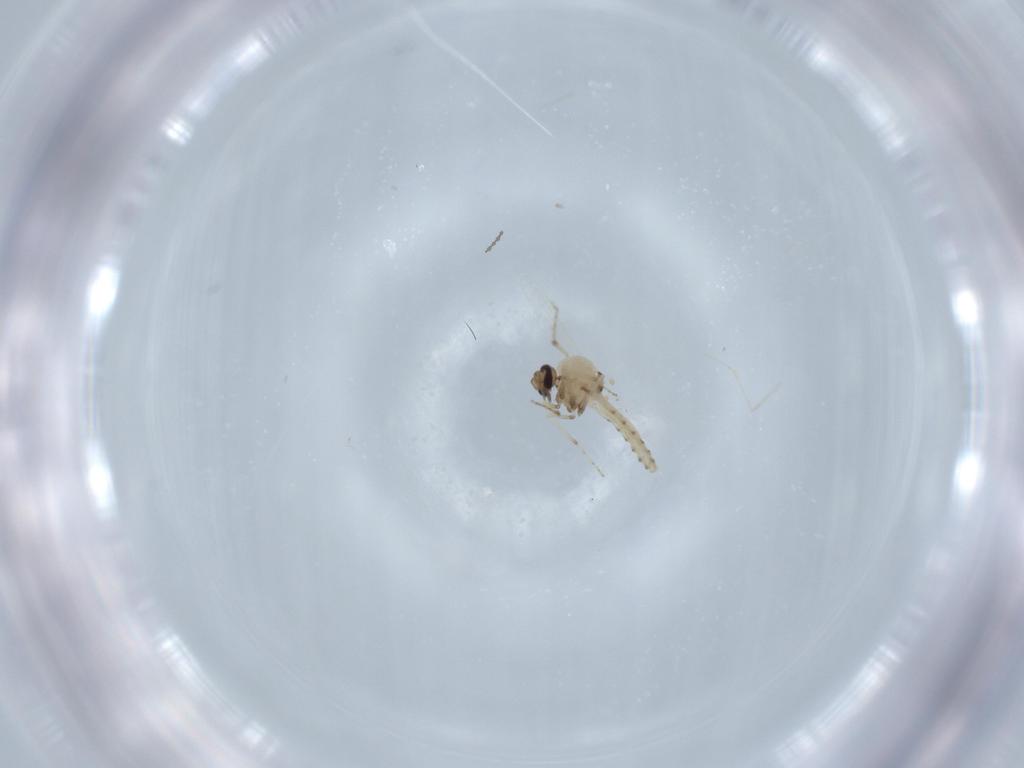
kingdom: Animalia
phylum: Arthropoda
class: Insecta
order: Diptera
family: Ceratopogonidae
